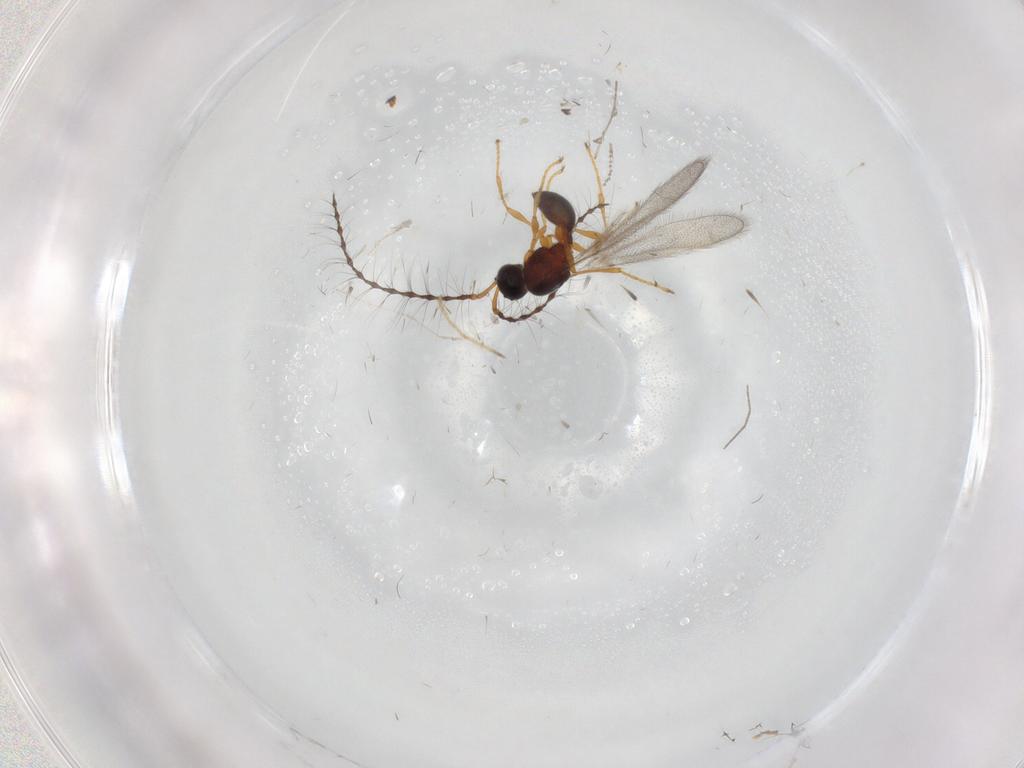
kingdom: Animalia
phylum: Arthropoda
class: Insecta
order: Hymenoptera
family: Diapriidae
